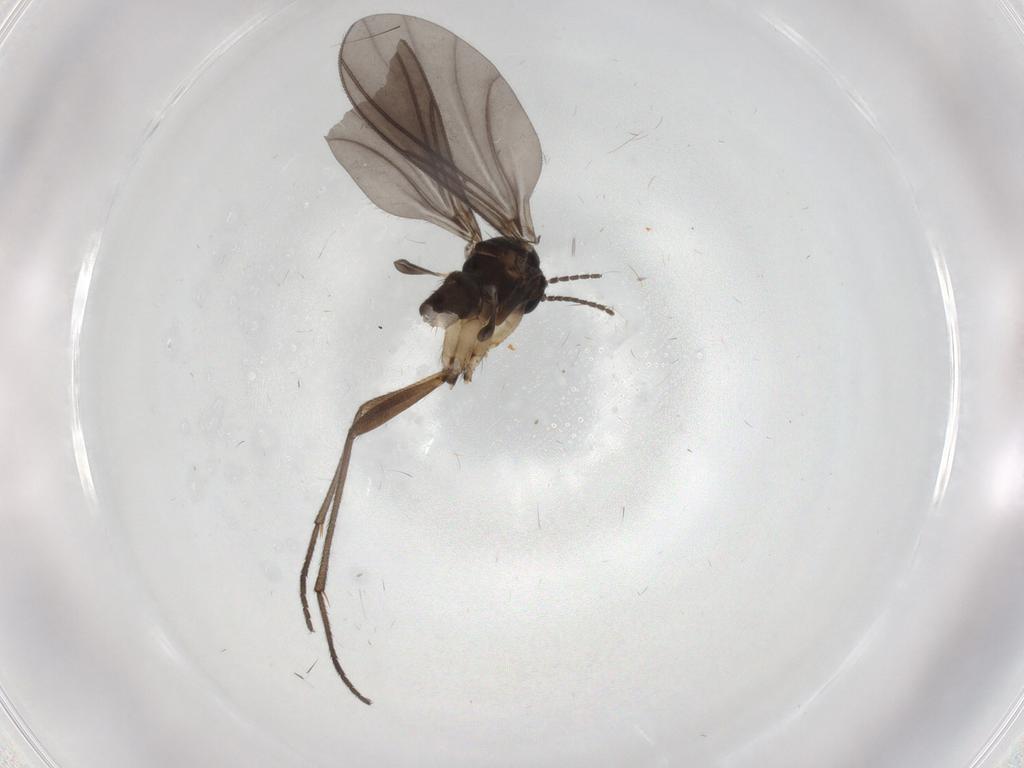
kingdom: Animalia
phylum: Arthropoda
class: Insecta
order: Diptera
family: Sciaridae
